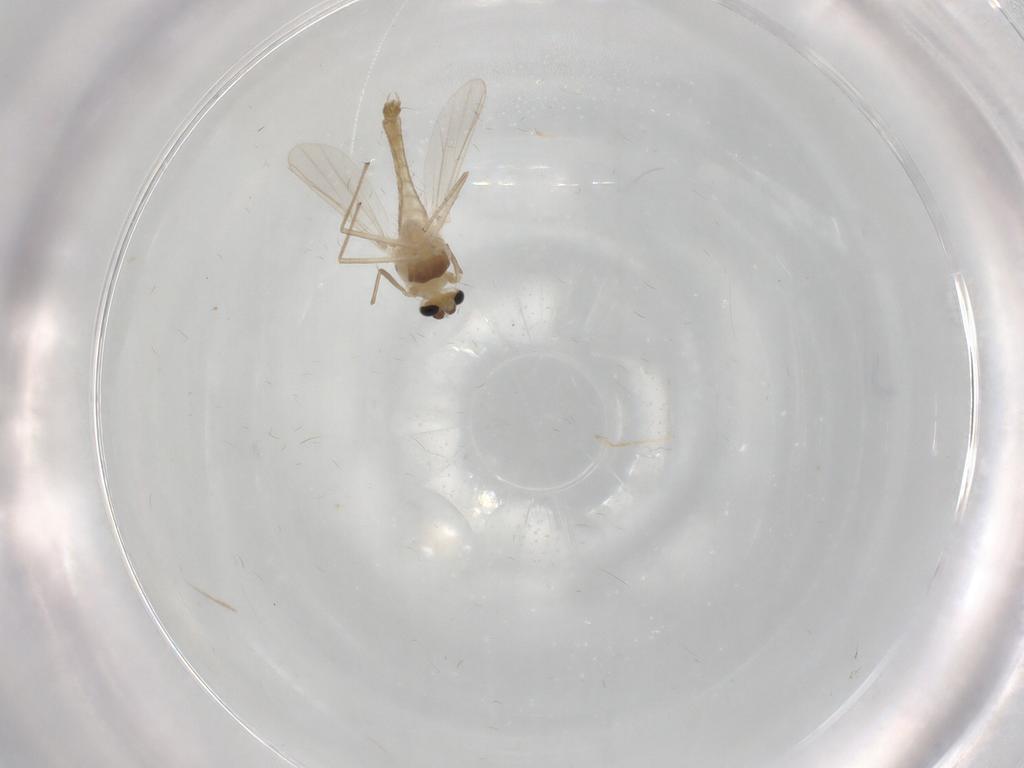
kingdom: Animalia
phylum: Arthropoda
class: Insecta
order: Diptera
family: Chironomidae
